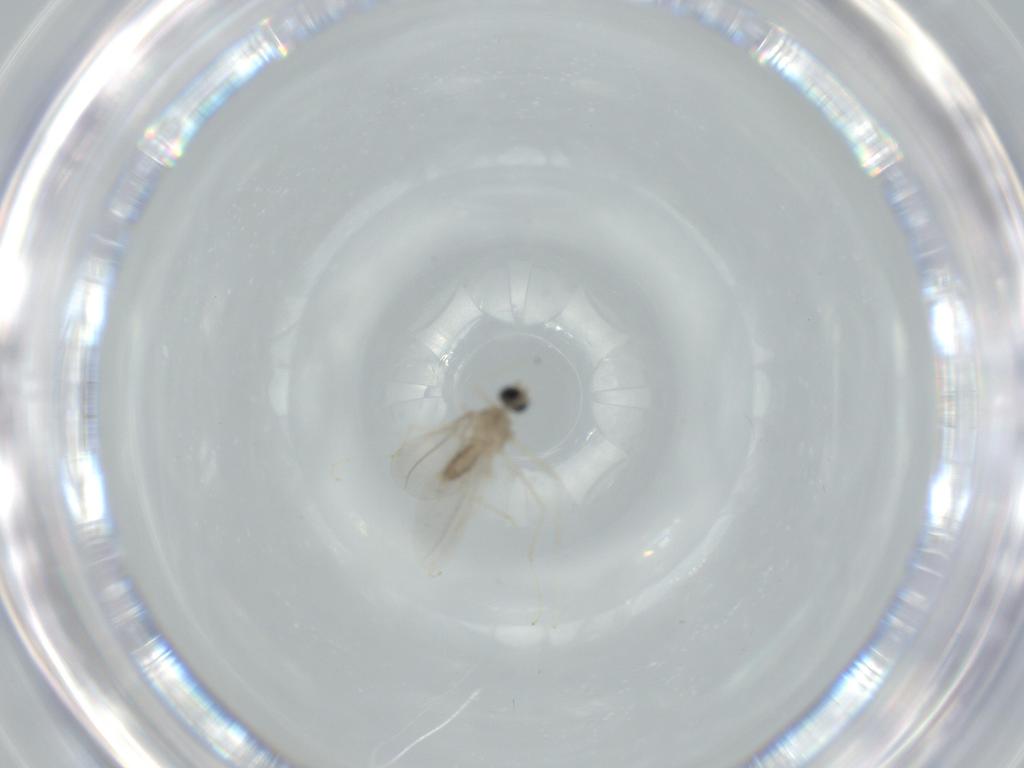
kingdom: Animalia
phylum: Arthropoda
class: Insecta
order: Diptera
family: Cecidomyiidae
